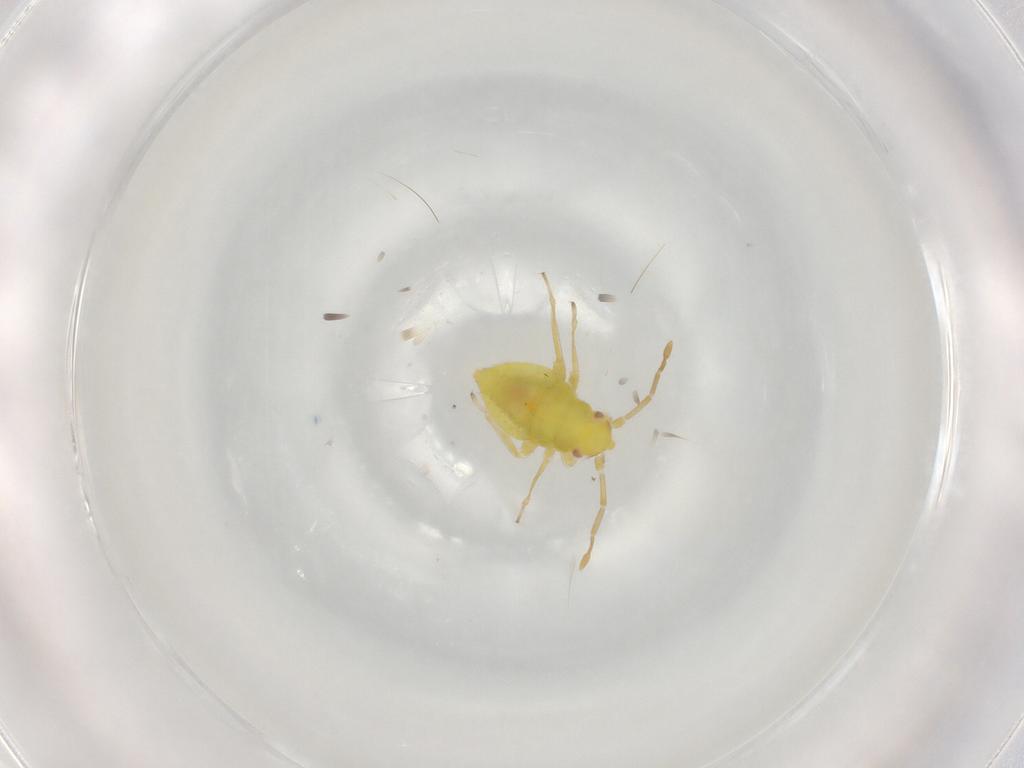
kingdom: Animalia
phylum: Arthropoda
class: Insecta
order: Hemiptera
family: Miridae
